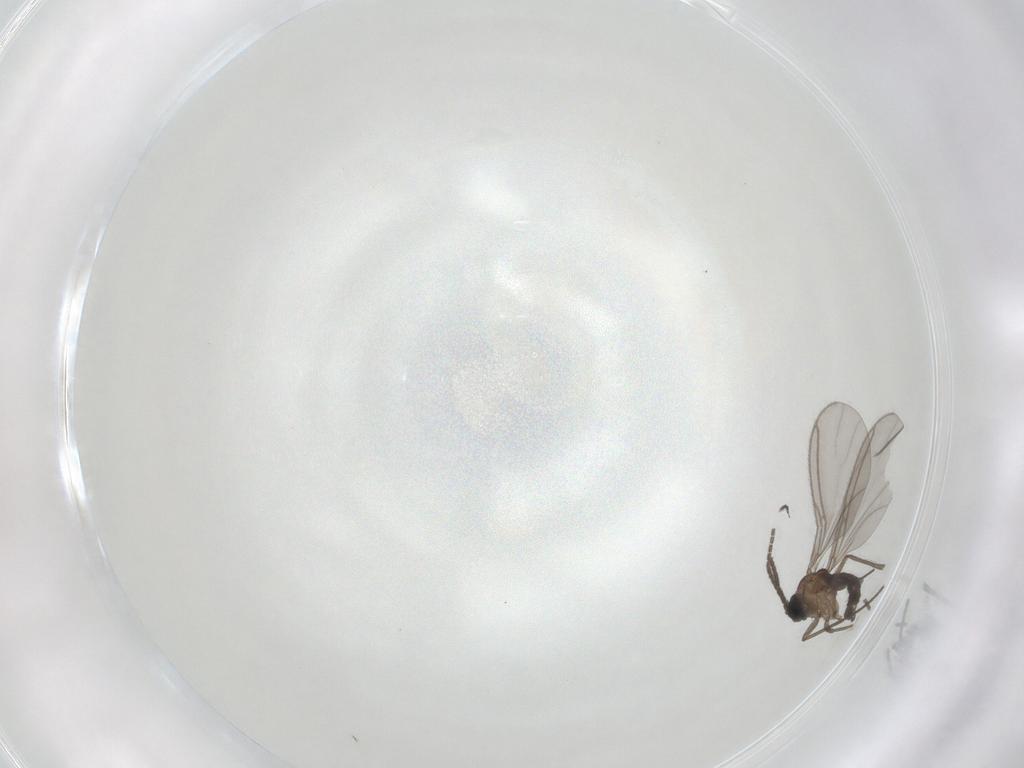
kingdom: Animalia
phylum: Arthropoda
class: Insecta
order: Diptera
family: Sciaridae
